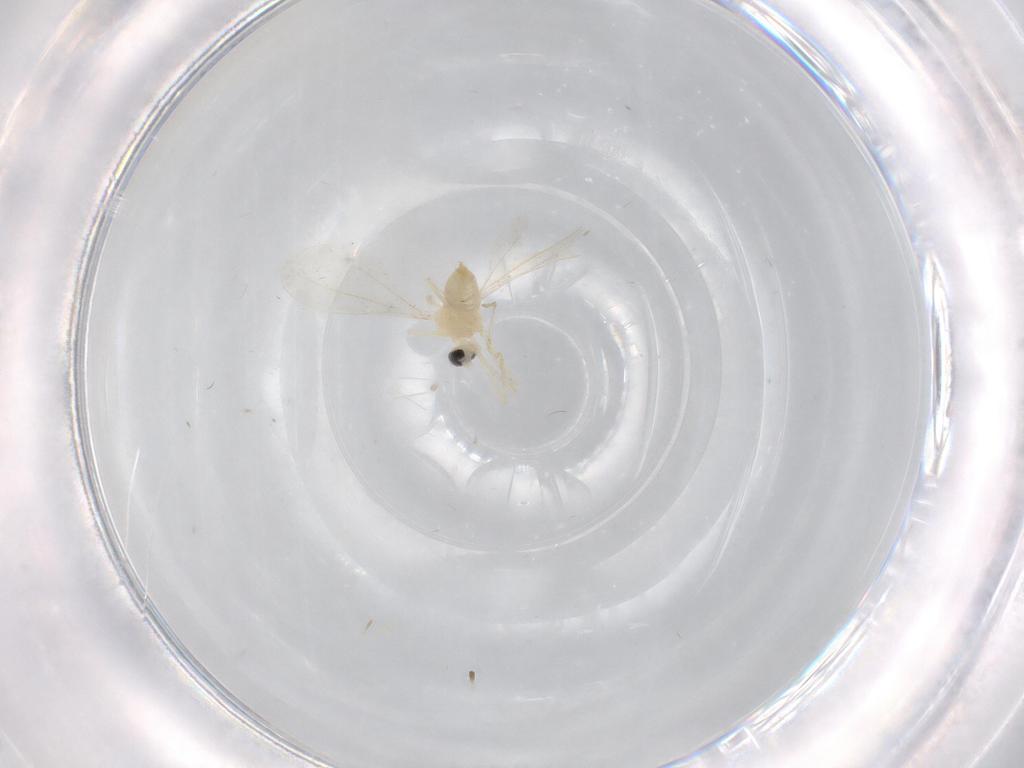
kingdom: Animalia
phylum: Arthropoda
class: Insecta
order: Diptera
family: Cecidomyiidae
